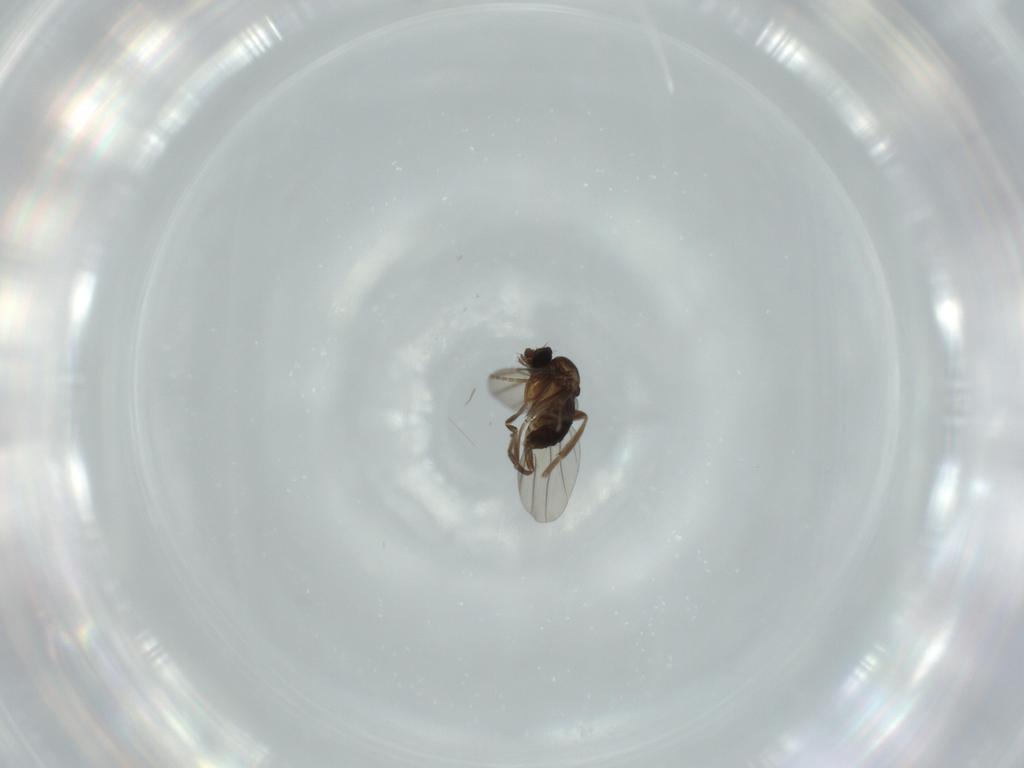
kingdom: Animalia
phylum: Arthropoda
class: Insecta
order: Diptera
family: Phoridae
